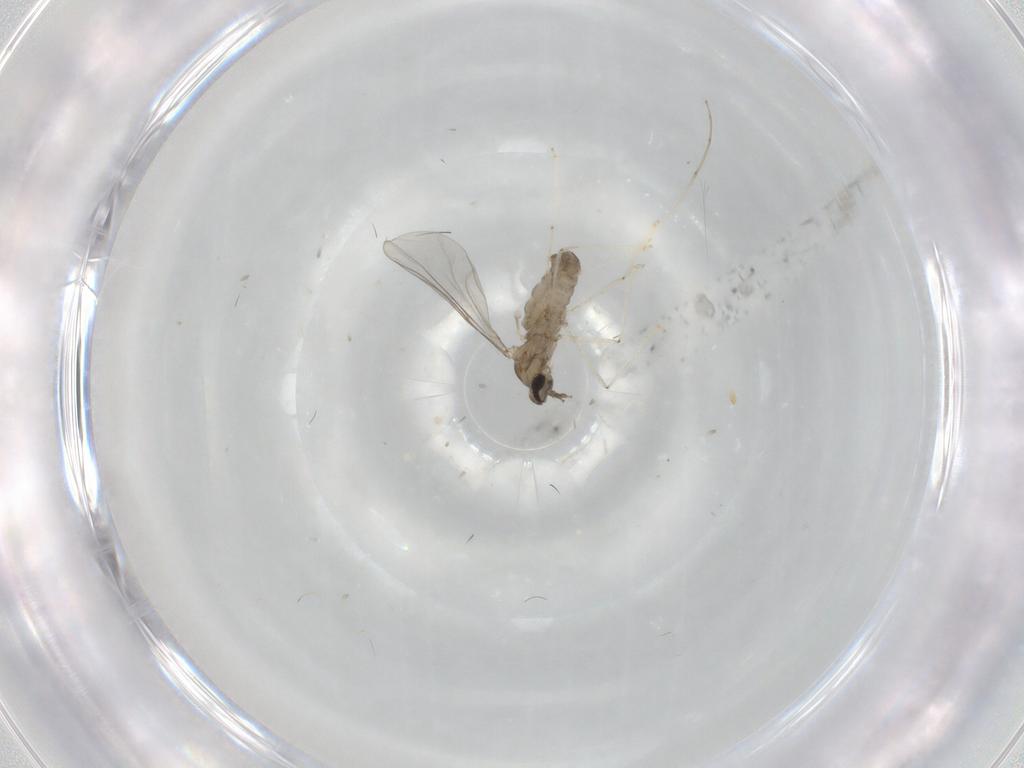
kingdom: Animalia
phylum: Arthropoda
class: Insecta
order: Diptera
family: Cecidomyiidae
